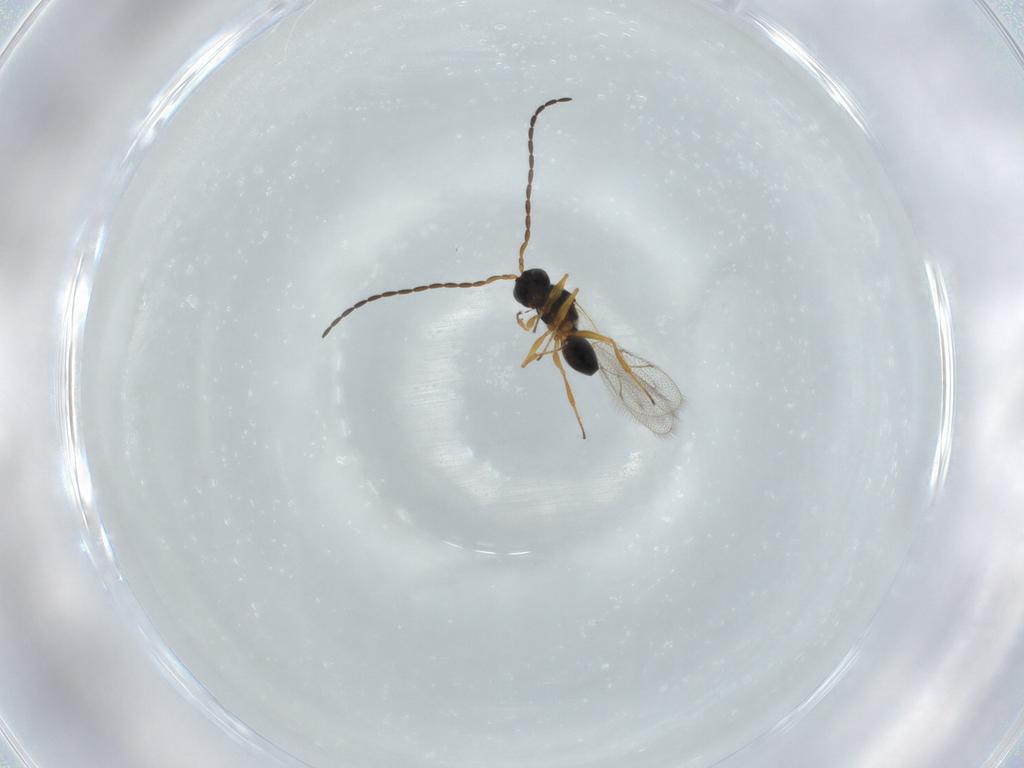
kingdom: Animalia
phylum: Arthropoda
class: Insecta
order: Hymenoptera
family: Figitidae
